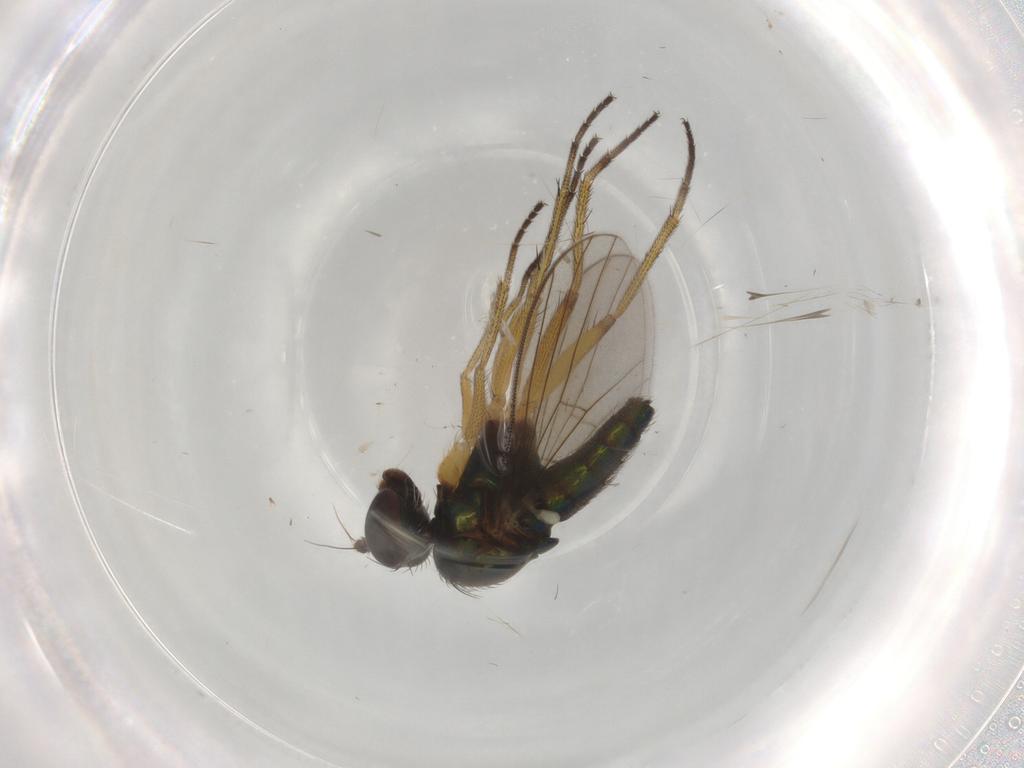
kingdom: Animalia
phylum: Arthropoda
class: Insecta
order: Diptera
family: Dolichopodidae
